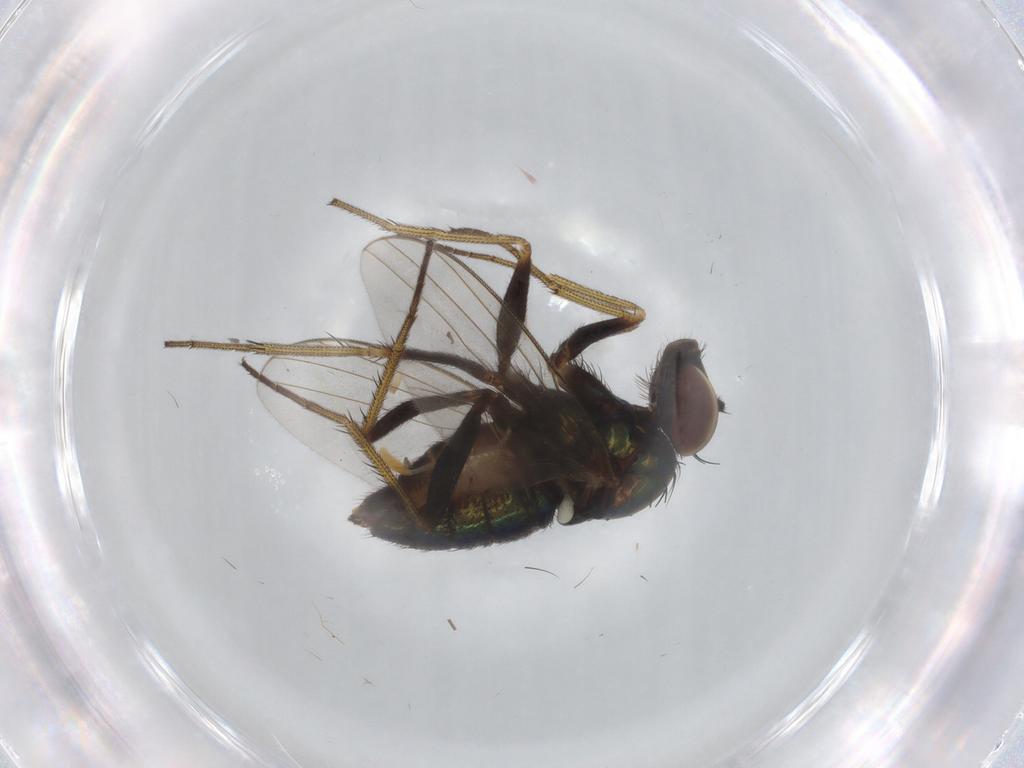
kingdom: Animalia
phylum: Arthropoda
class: Insecta
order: Diptera
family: Dolichopodidae
